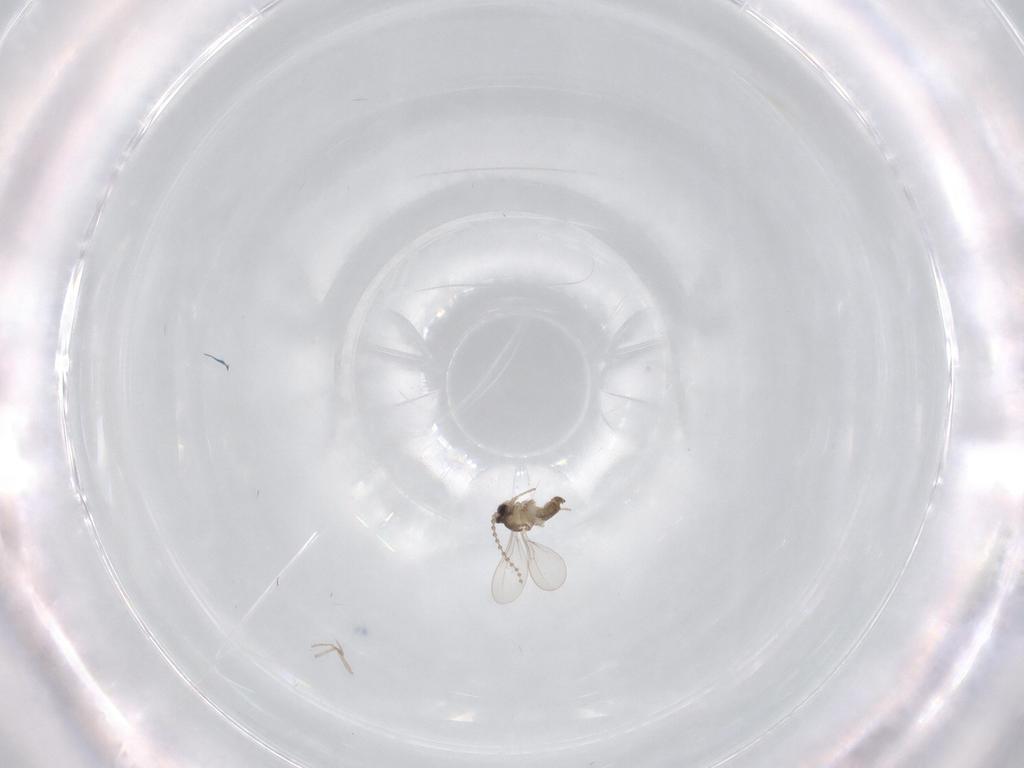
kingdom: Animalia
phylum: Arthropoda
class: Insecta
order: Diptera
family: Cecidomyiidae
